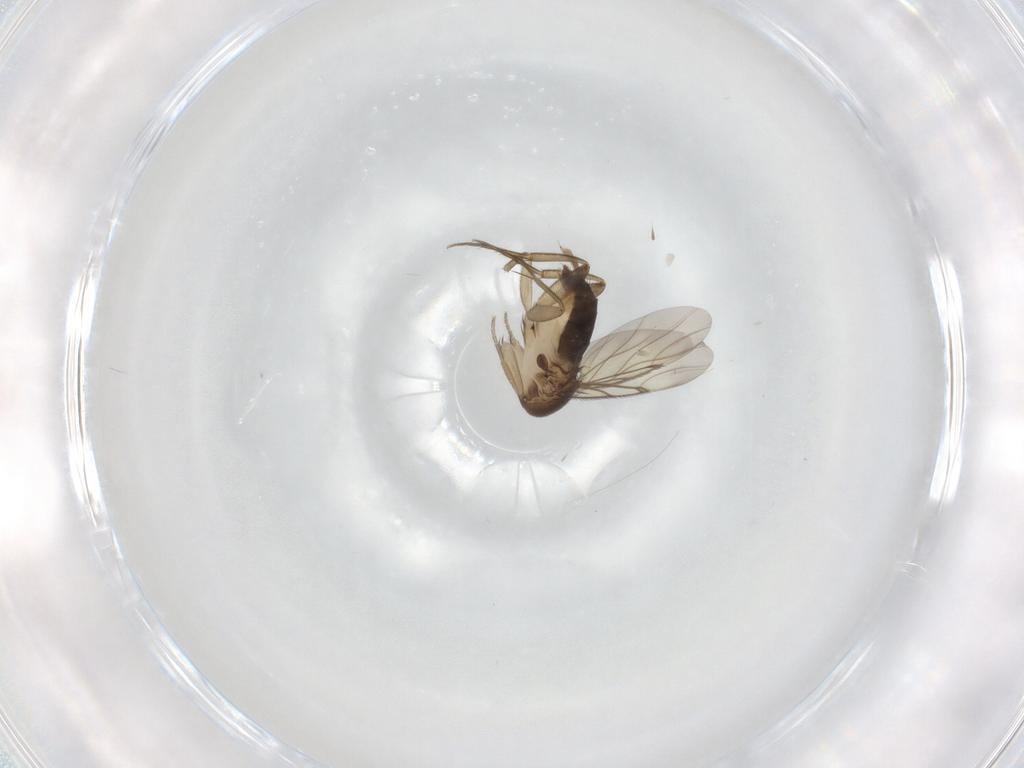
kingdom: Animalia
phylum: Arthropoda
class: Insecta
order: Diptera
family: Phoridae
